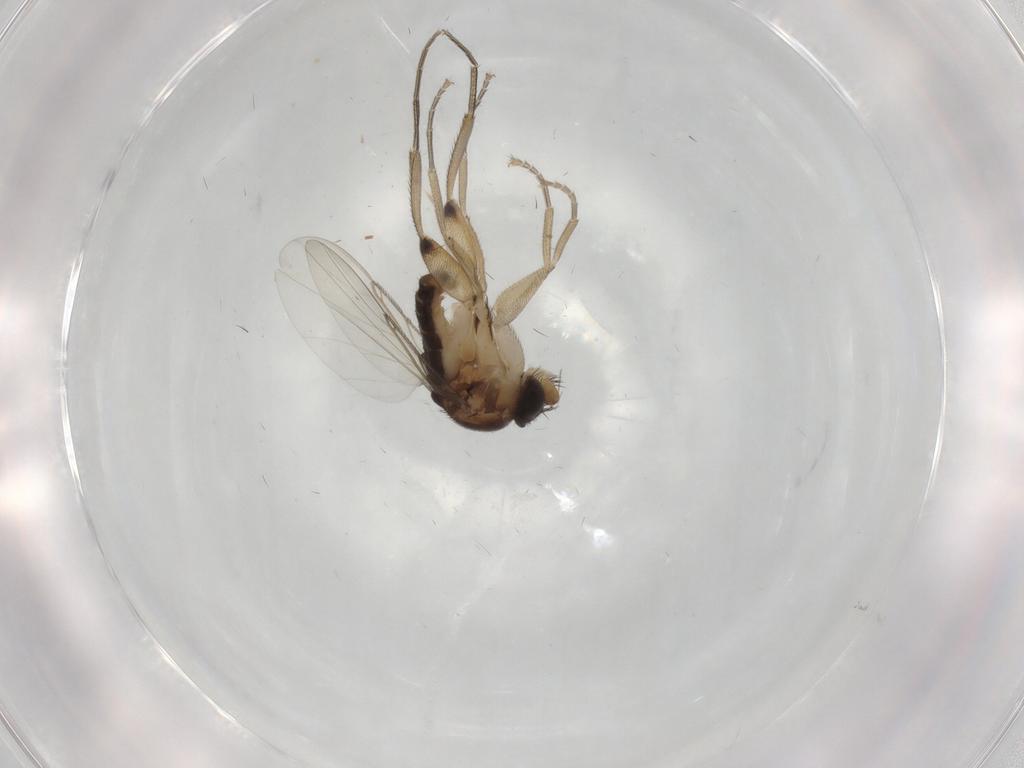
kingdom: Animalia
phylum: Arthropoda
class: Insecta
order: Diptera
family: Phoridae
